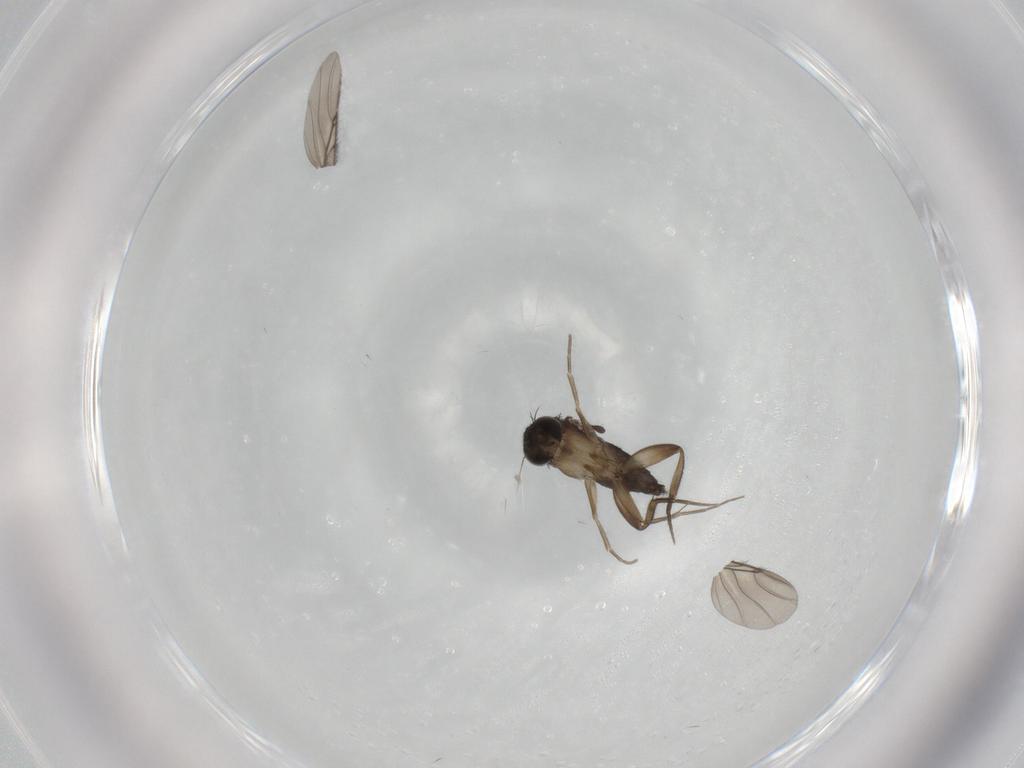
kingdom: Animalia
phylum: Arthropoda
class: Insecta
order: Diptera
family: Phoridae
